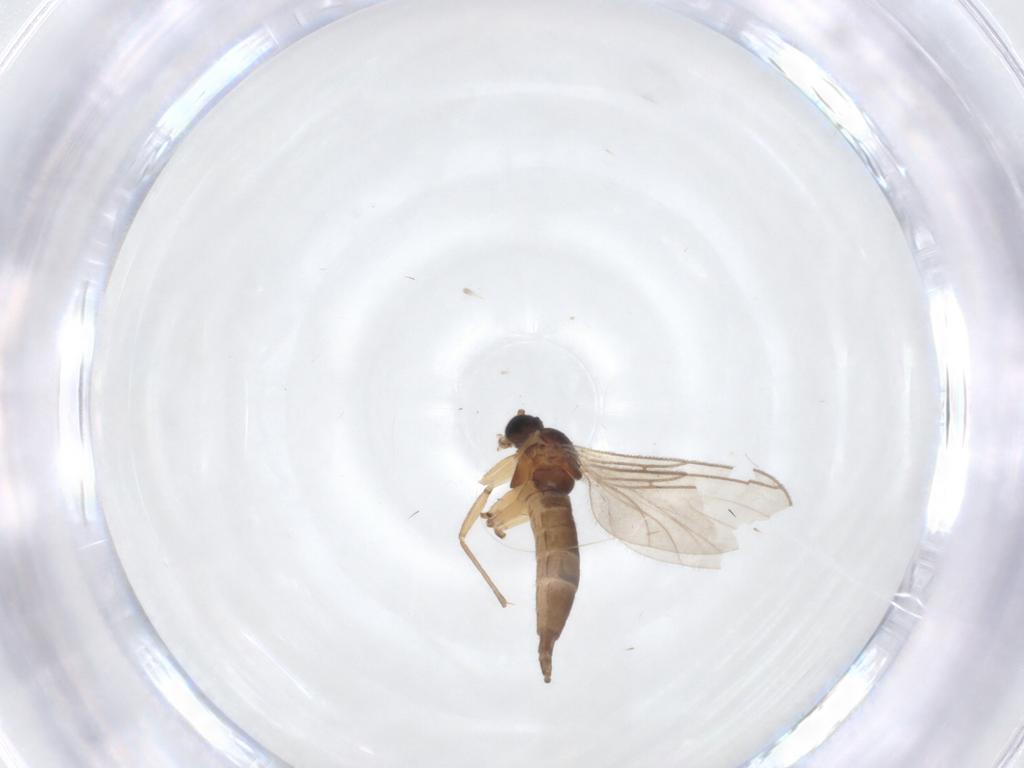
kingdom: Animalia
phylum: Arthropoda
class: Insecta
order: Diptera
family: Sciaridae
